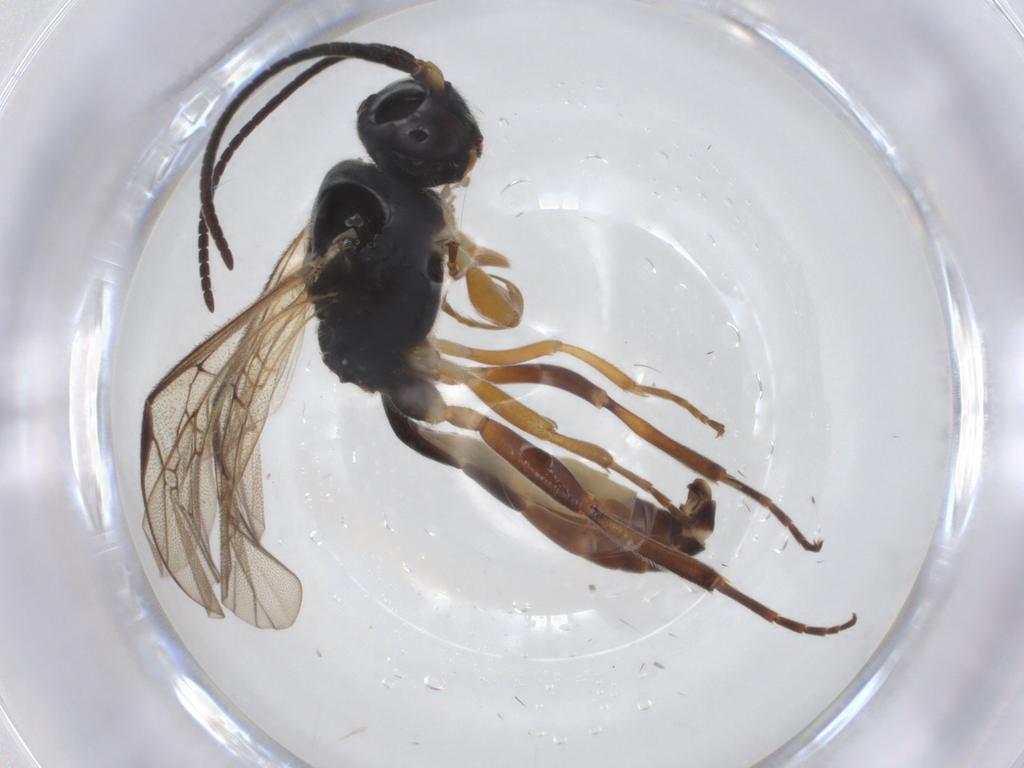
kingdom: Animalia
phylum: Arthropoda
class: Insecta
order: Hymenoptera
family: Ichneumonidae
